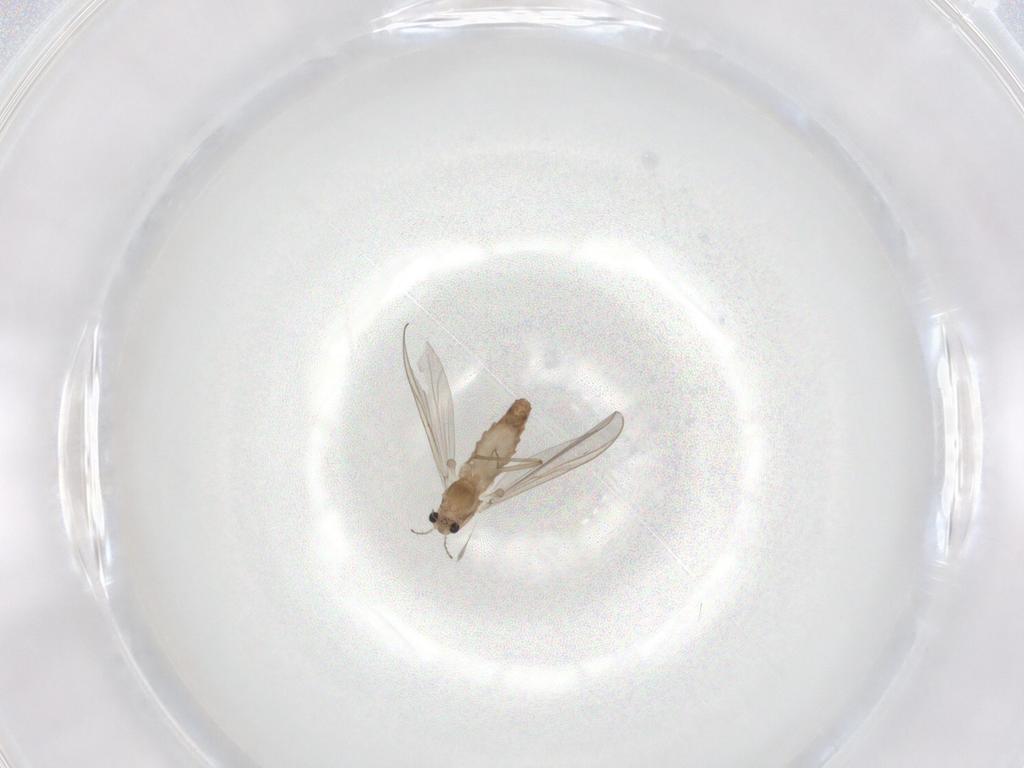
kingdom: Animalia
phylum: Arthropoda
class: Insecta
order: Diptera
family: Chironomidae
